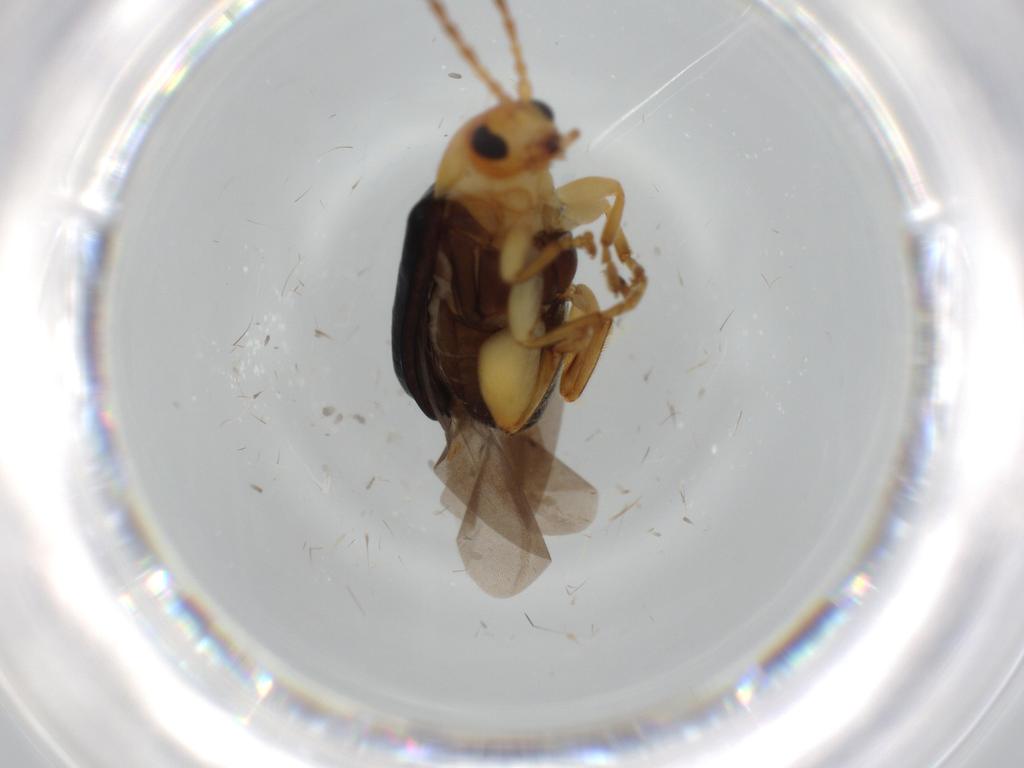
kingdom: Animalia
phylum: Arthropoda
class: Insecta
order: Coleoptera
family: Chrysomelidae
